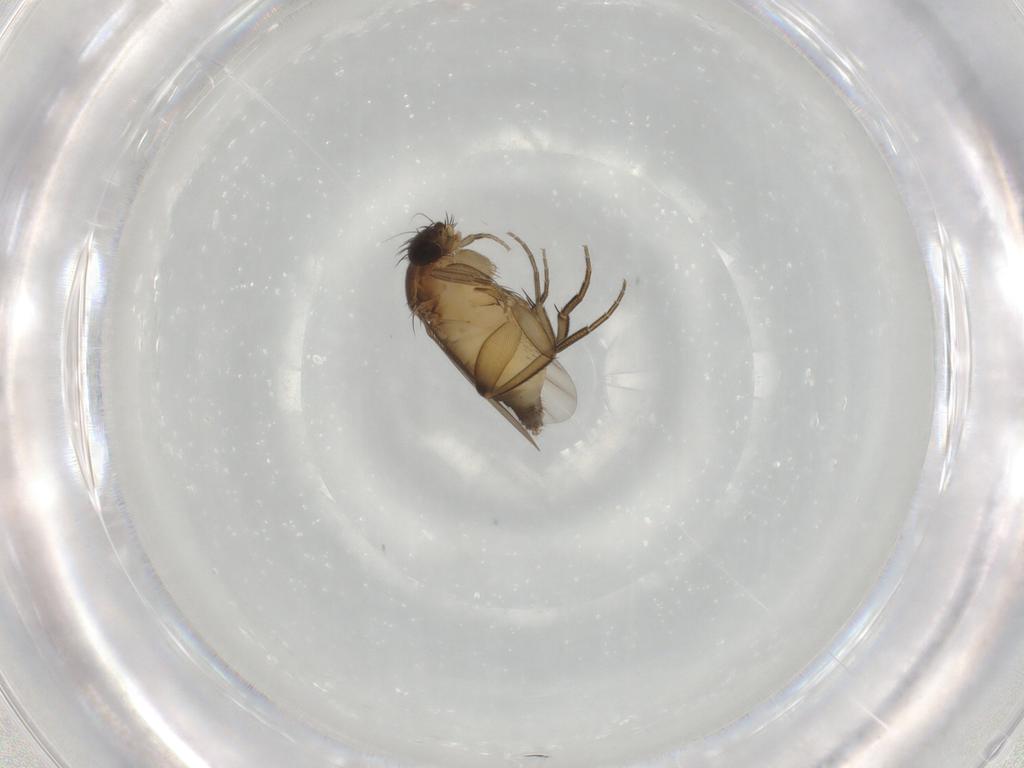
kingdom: Animalia
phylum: Arthropoda
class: Insecta
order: Diptera
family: Phoridae
